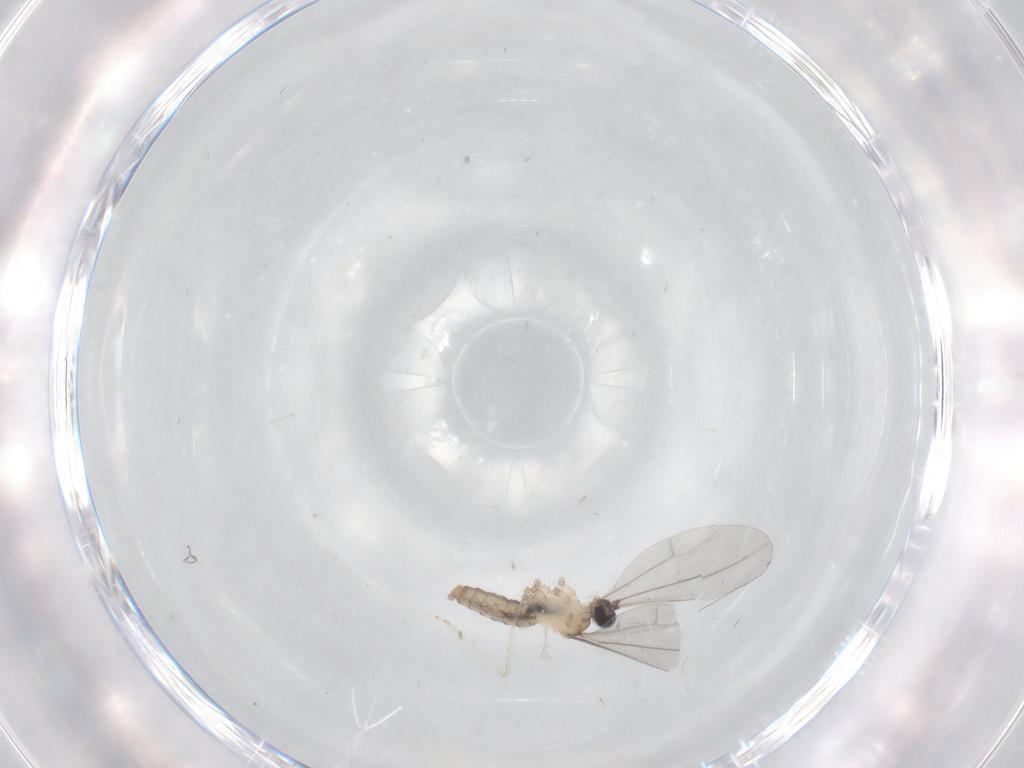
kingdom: Animalia
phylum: Arthropoda
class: Insecta
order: Diptera
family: Cecidomyiidae
